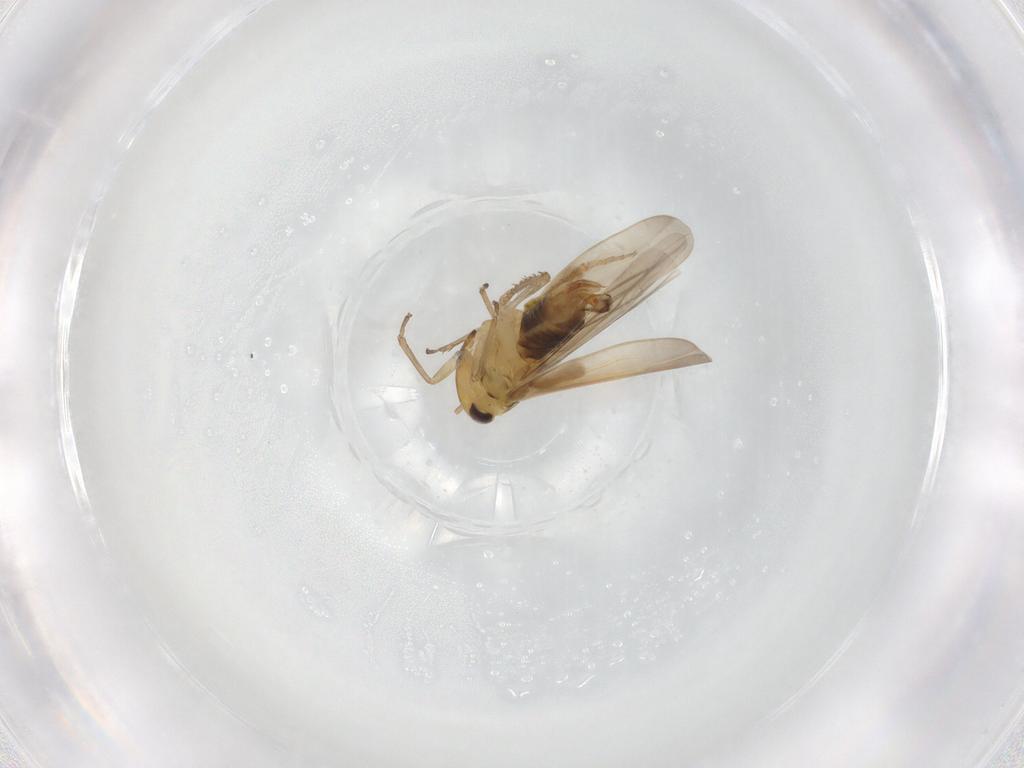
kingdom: Animalia
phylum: Arthropoda
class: Insecta
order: Hemiptera
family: Cicadellidae
